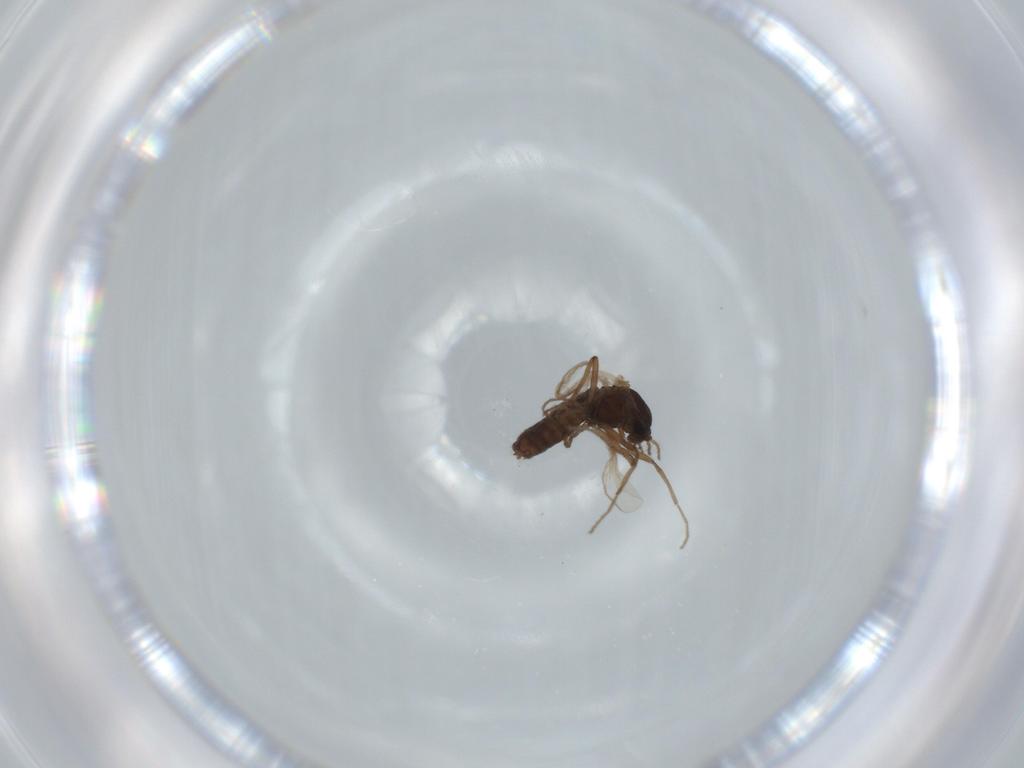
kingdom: Animalia
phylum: Arthropoda
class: Insecta
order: Diptera
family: Chironomidae
